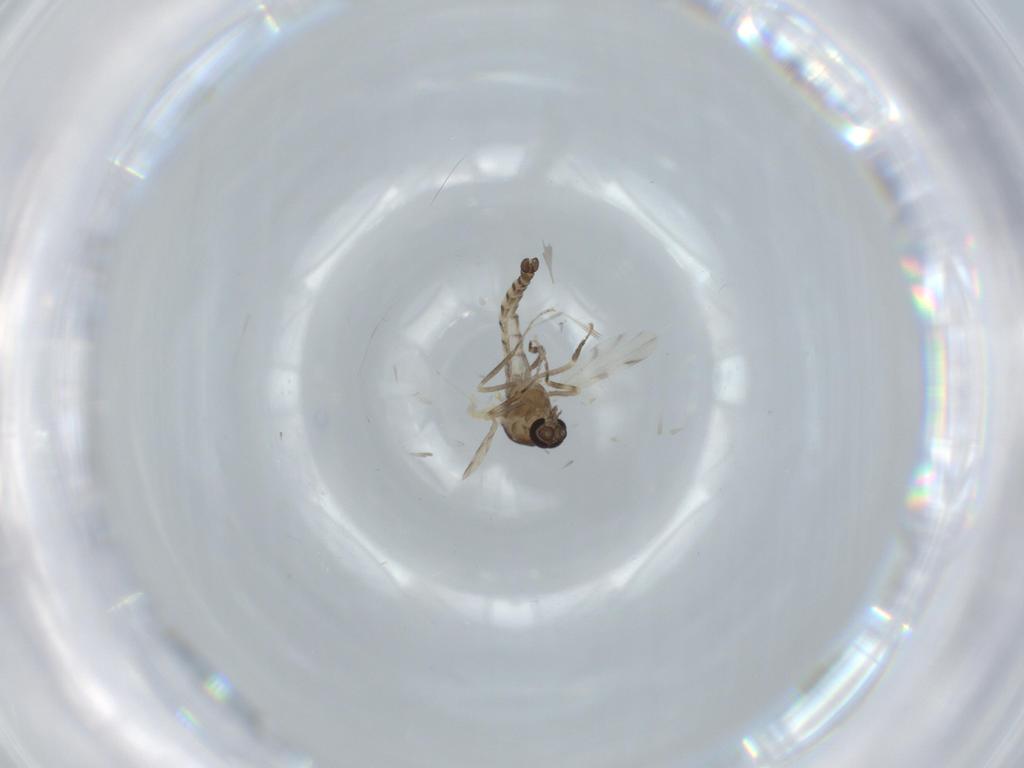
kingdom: Animalia
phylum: Arthropoda
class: Insecta
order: Diptera
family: Ceratopogonidae
